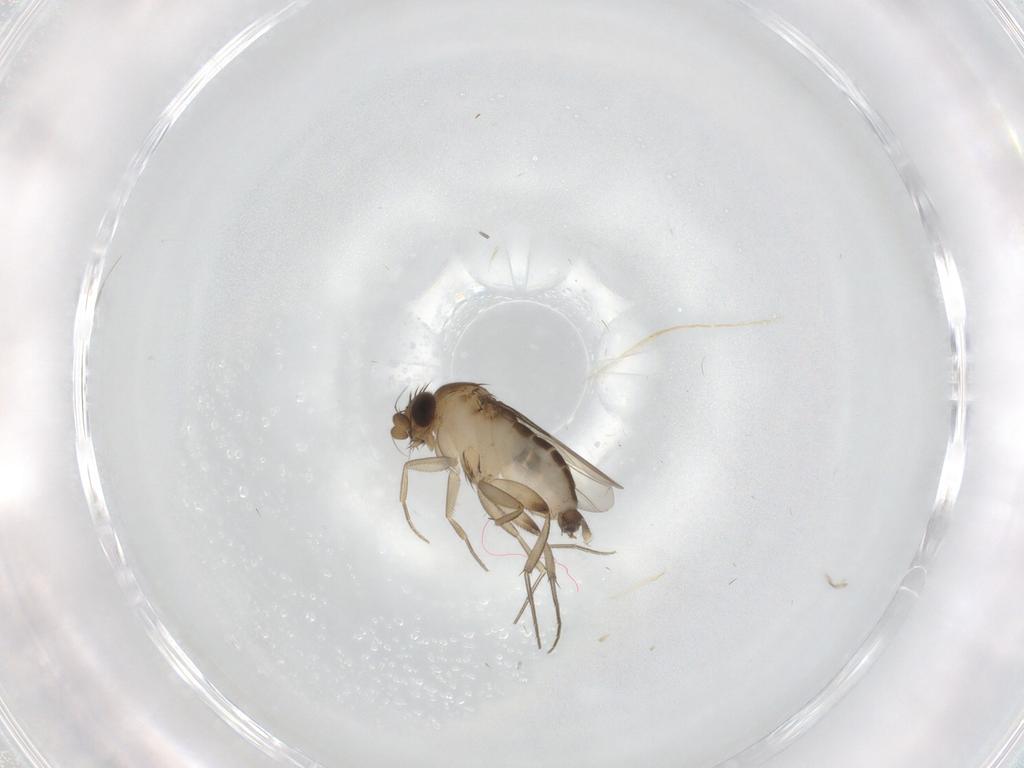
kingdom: Animalia
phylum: Arthropoda
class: Insecta
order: Diptera
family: Phoridae
